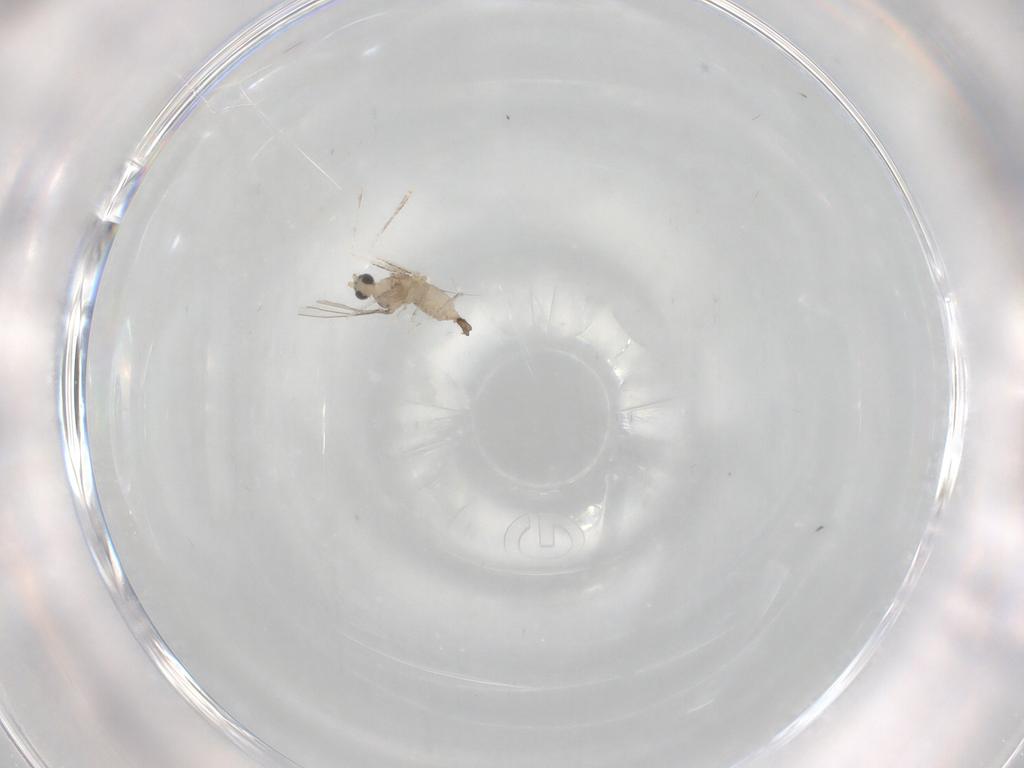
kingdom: Animalia
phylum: Arthropoda
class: Insecta
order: Diptera
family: Cecidomyiidae
